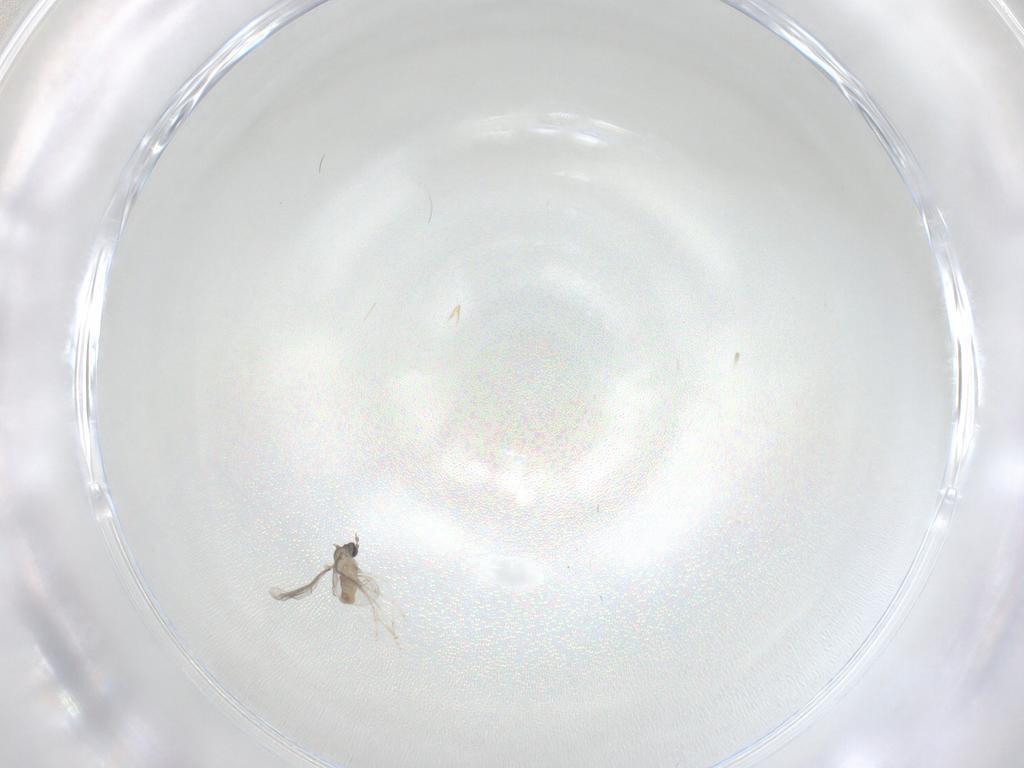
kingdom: Animalia
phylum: Arthropoda
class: Insecta
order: Diptera
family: Cecidomyiidae
